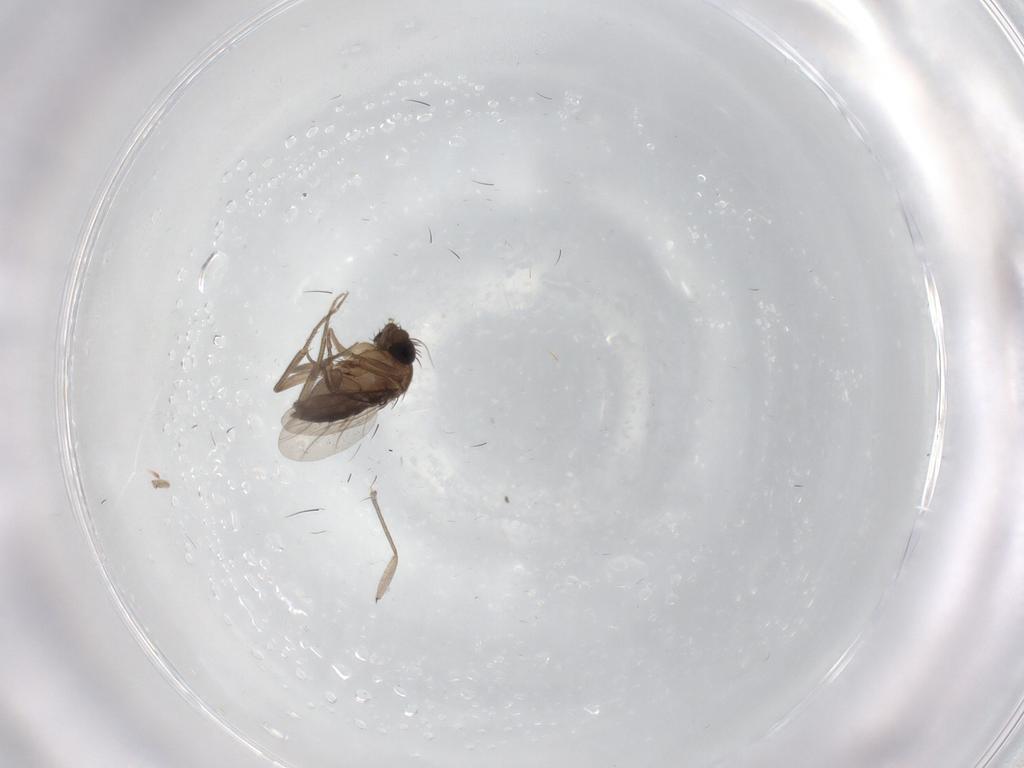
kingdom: Animalia
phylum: Arthropoda
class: Insecta
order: Diptera
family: Phoridae
